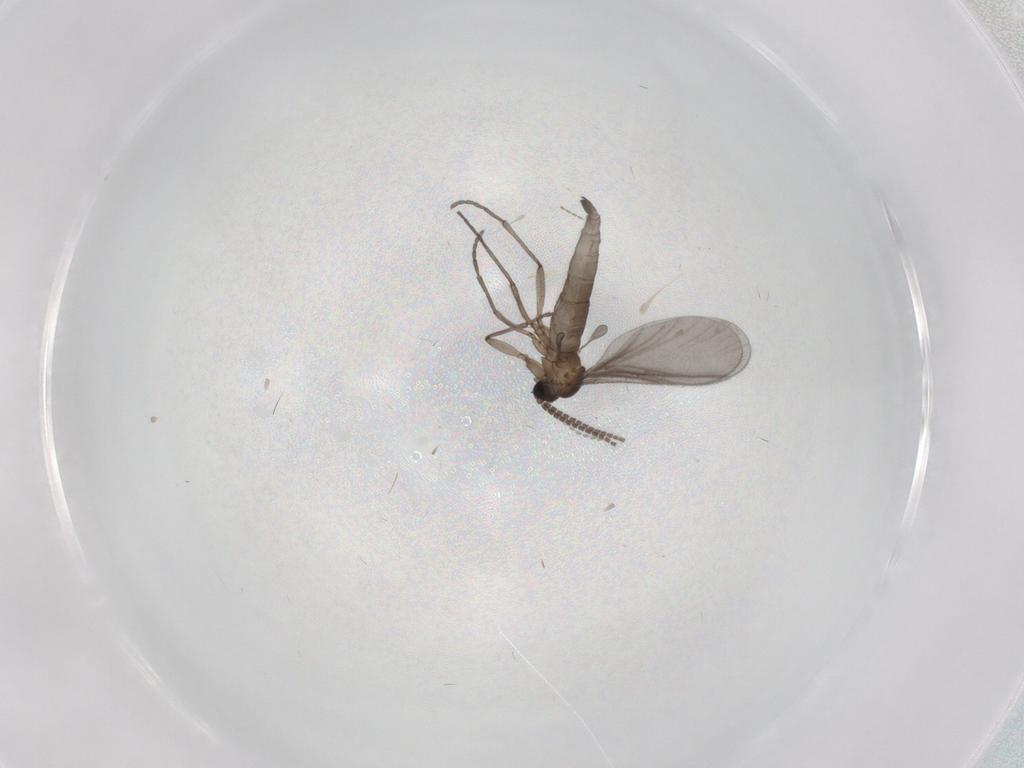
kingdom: Animalia
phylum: Arthropoda
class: Insecta
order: Diptera
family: Sciaridae
